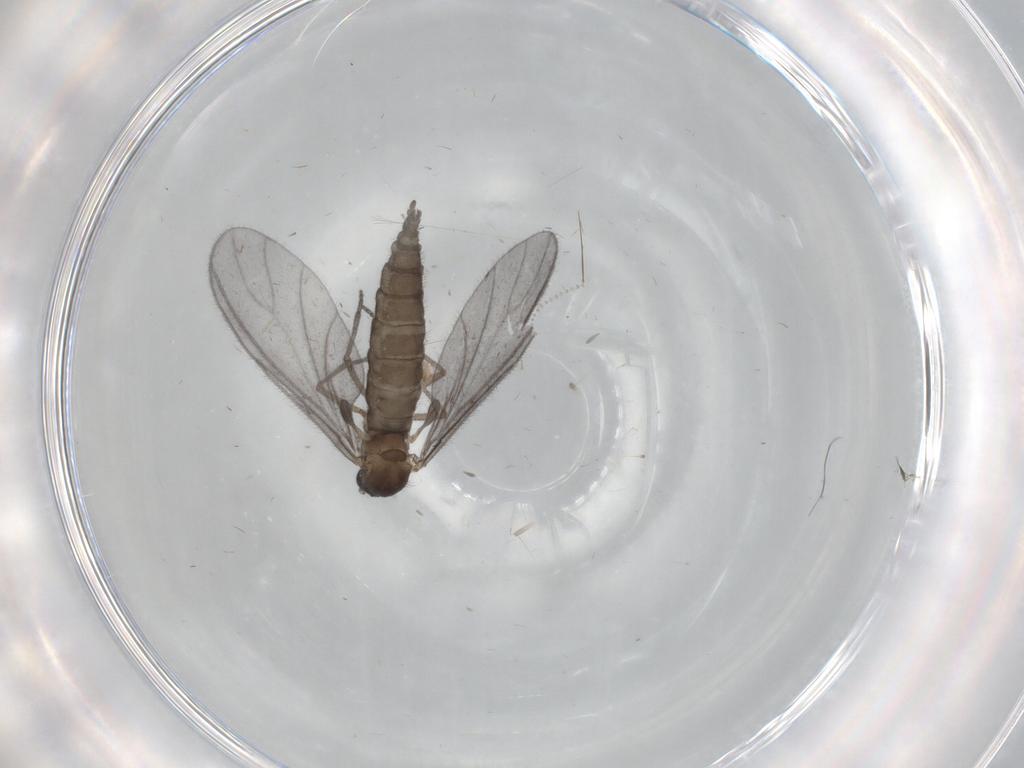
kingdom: Animalia
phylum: Arthropoda
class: Insecta
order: Diptera
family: Sciaridae
